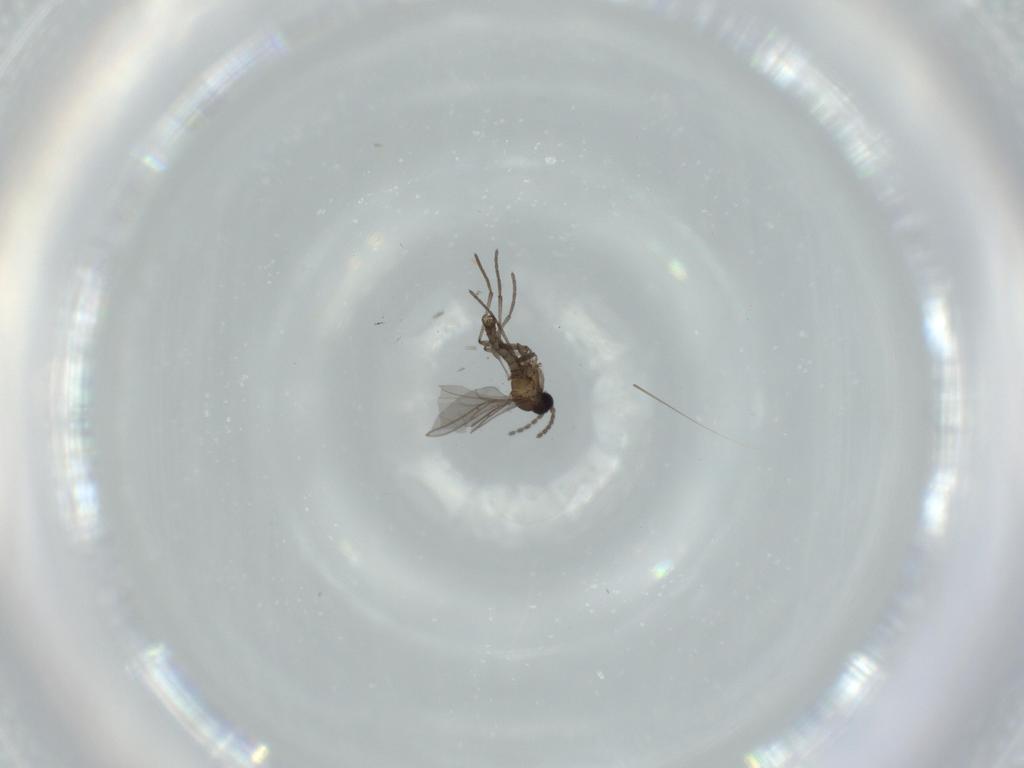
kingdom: Animalia
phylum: Arthropoda
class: Insecta
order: Diptera
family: Sciaridae
